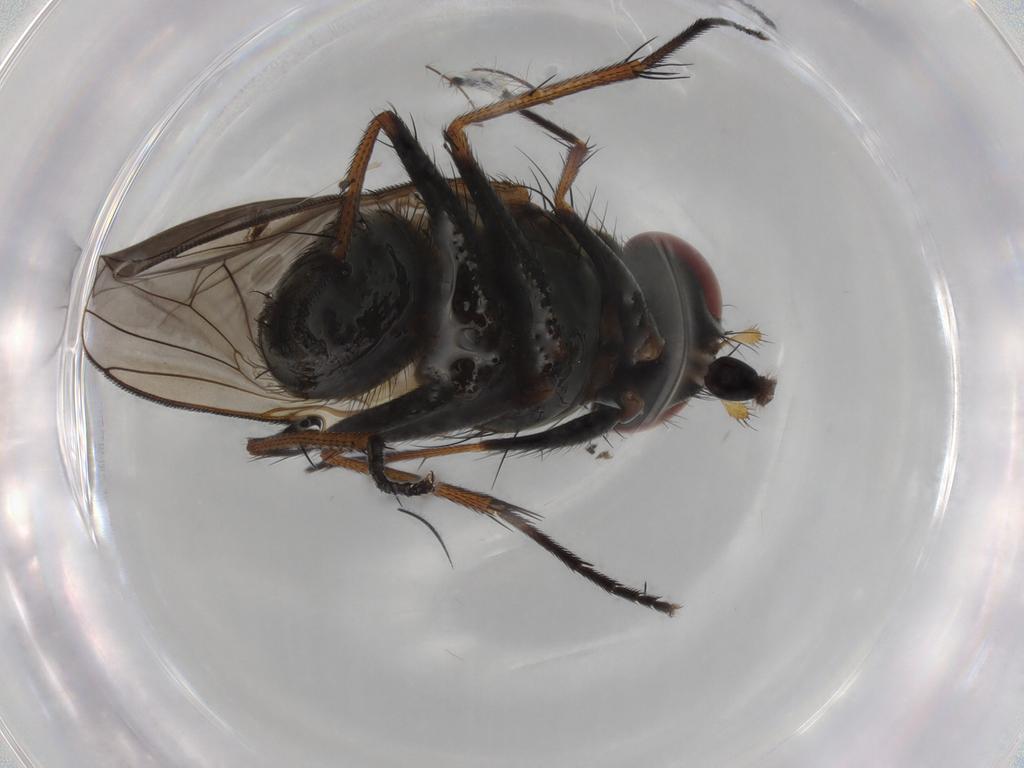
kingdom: Animalia
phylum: Arthropoda
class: Insecta
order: Diptera
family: Muscidae
